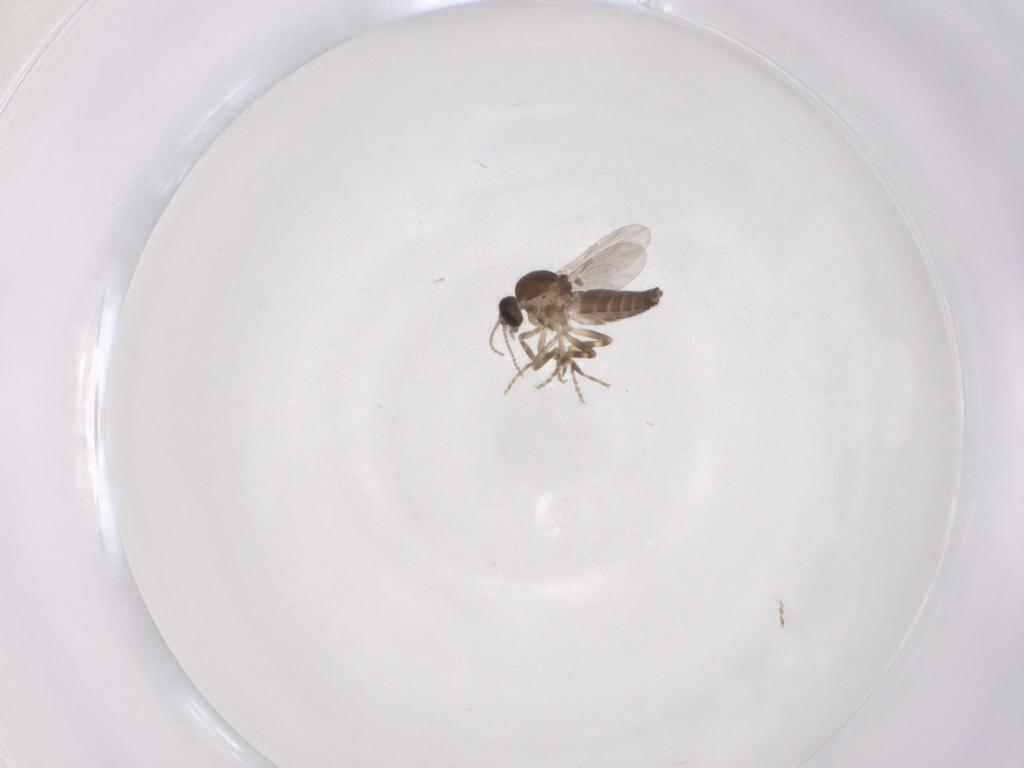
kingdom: Animalia
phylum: Arthropoda
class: Insecta
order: Diptera
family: Ceratopogonidae
